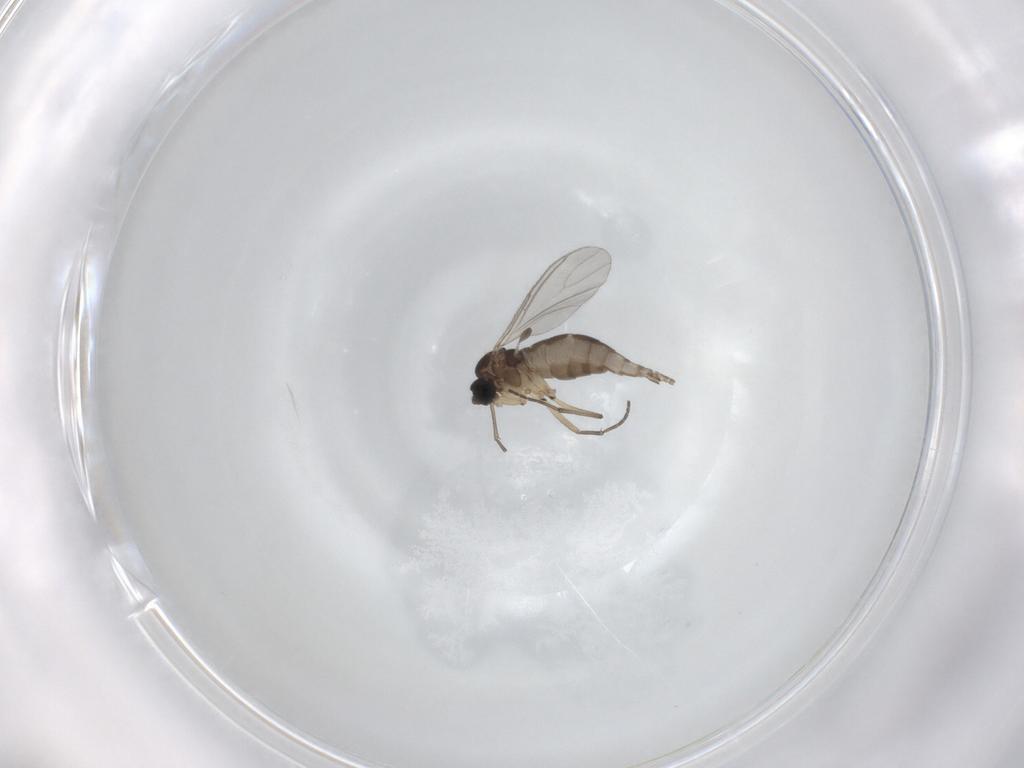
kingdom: Animalia
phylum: Arthropoda
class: Insecta
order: Diptera
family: Sciaridae
